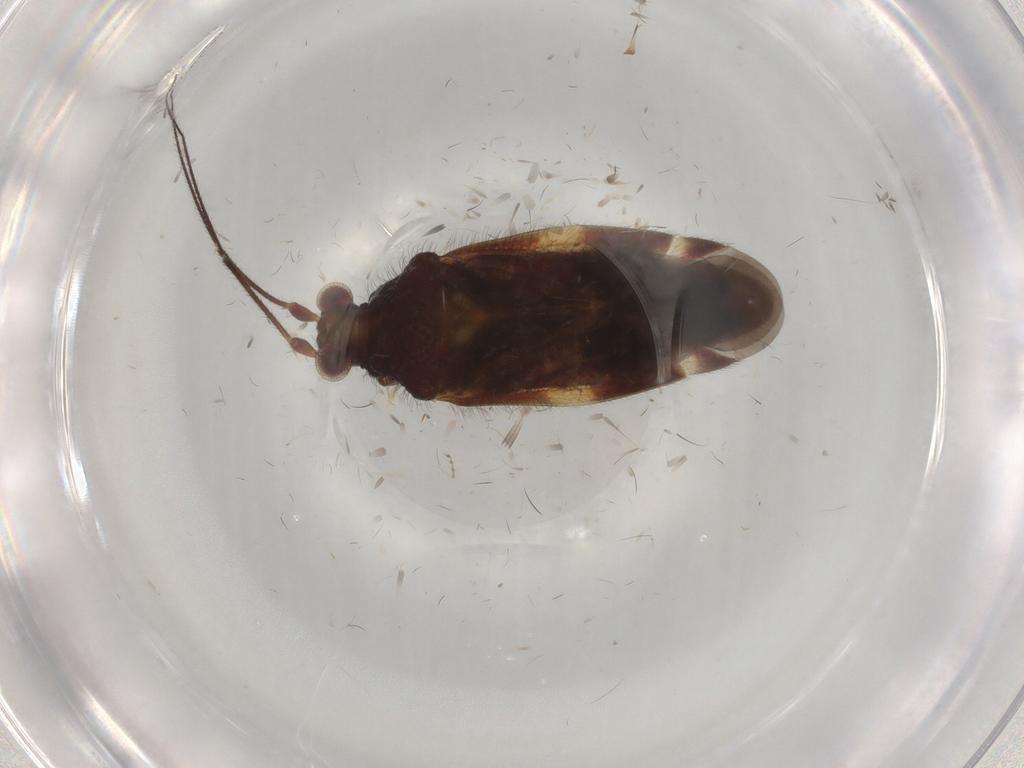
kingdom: Animalia
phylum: Arthropoda
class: Insecta
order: Hemiptera
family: Miridae
